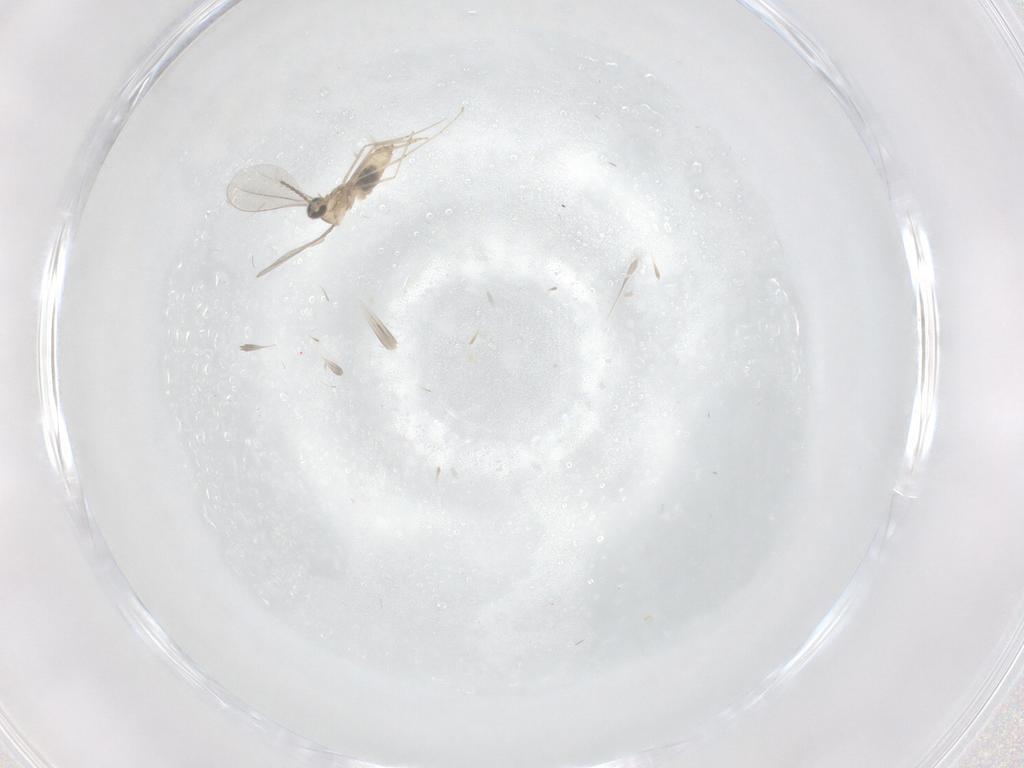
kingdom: Animalia
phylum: Arthropoda
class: Insecta
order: Diptera
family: Cecidomyiidae
